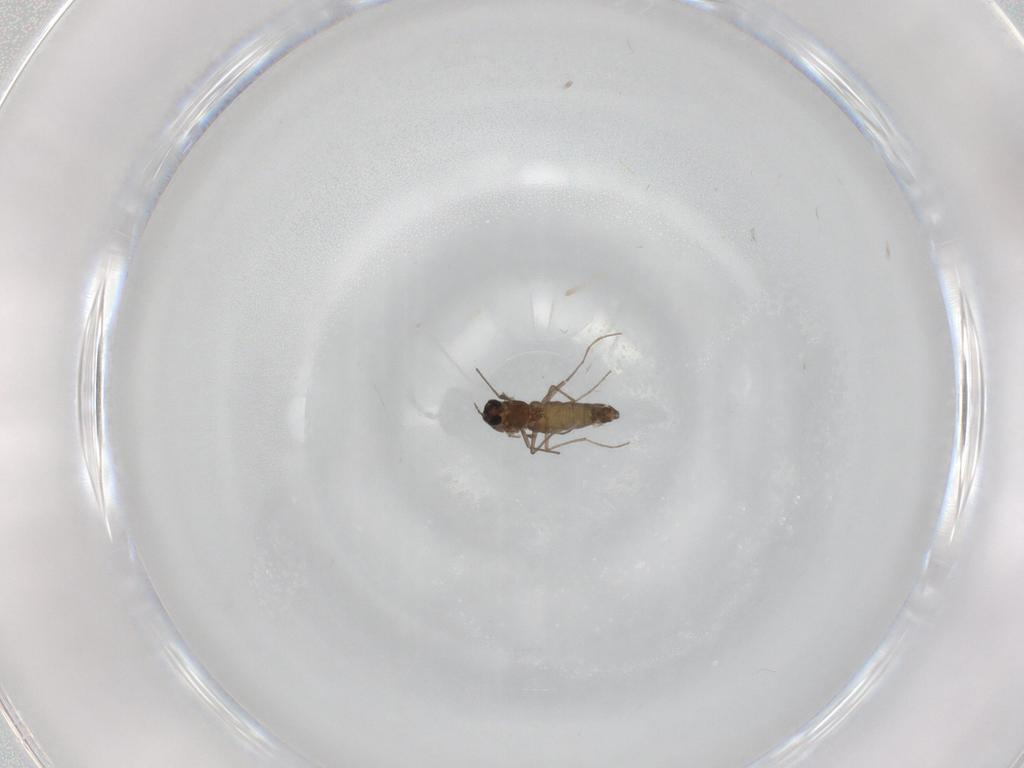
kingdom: Animalia
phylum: Arthropoda
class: Insecta
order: Diptera
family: Chironomidae
